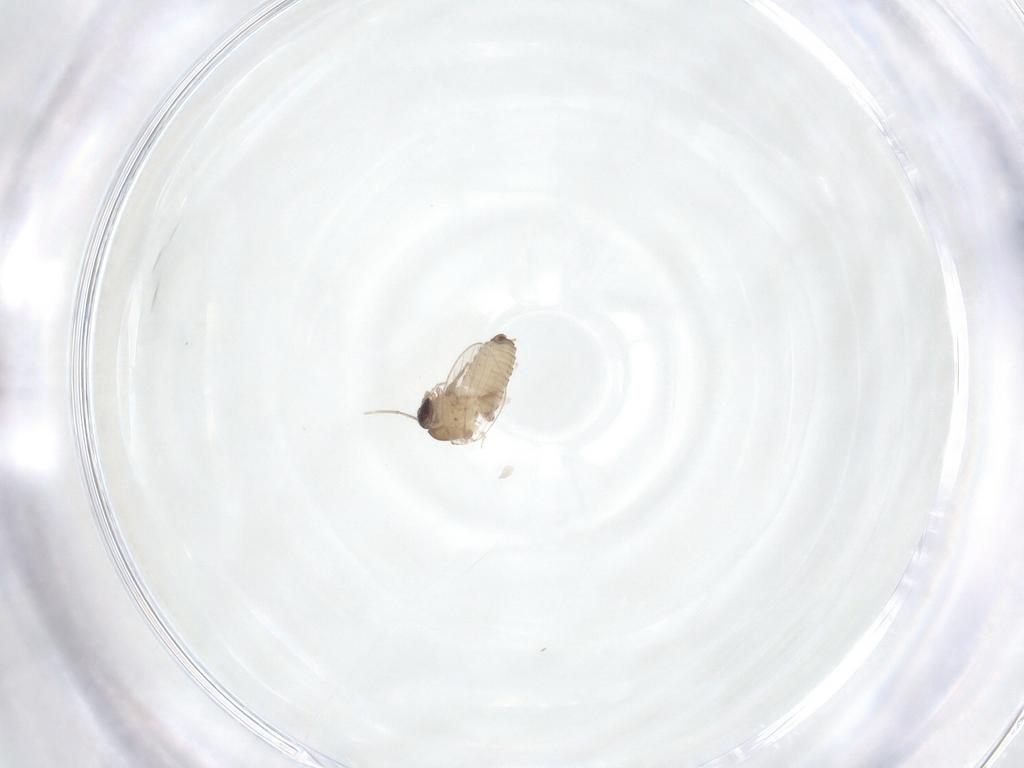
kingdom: Animalia
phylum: Arthropoda
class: Insecta
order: Diptera
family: Psychodidae
